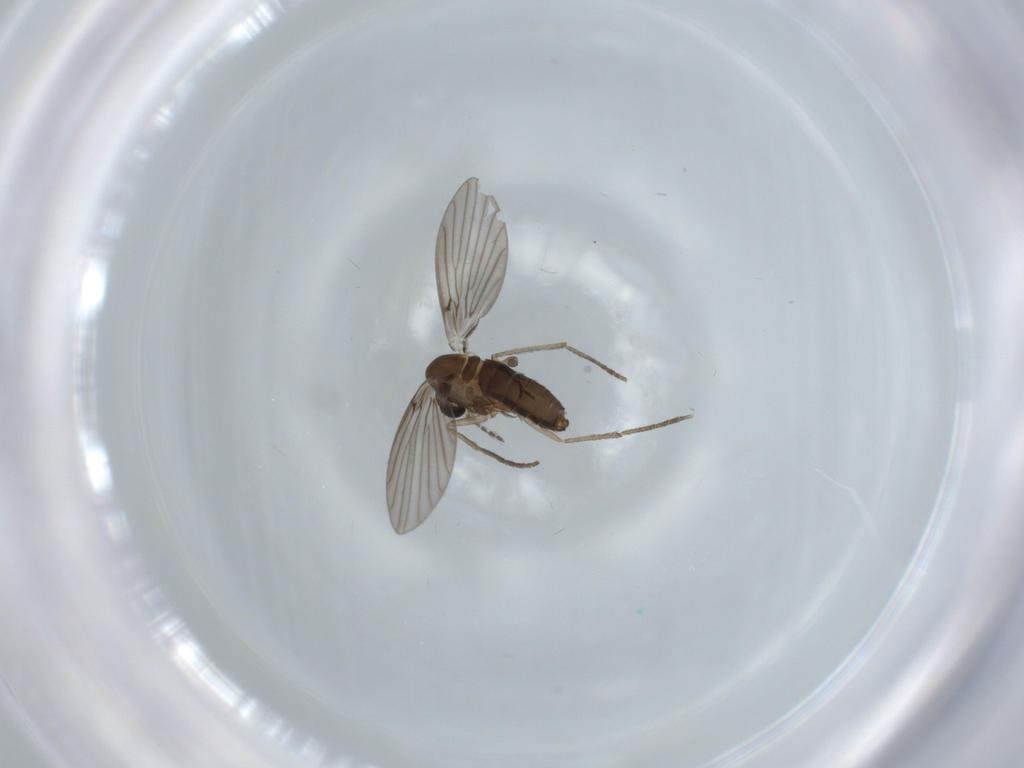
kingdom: Animalia
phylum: Arthropoda
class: Insecta
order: Diptera
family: Psychodidae
